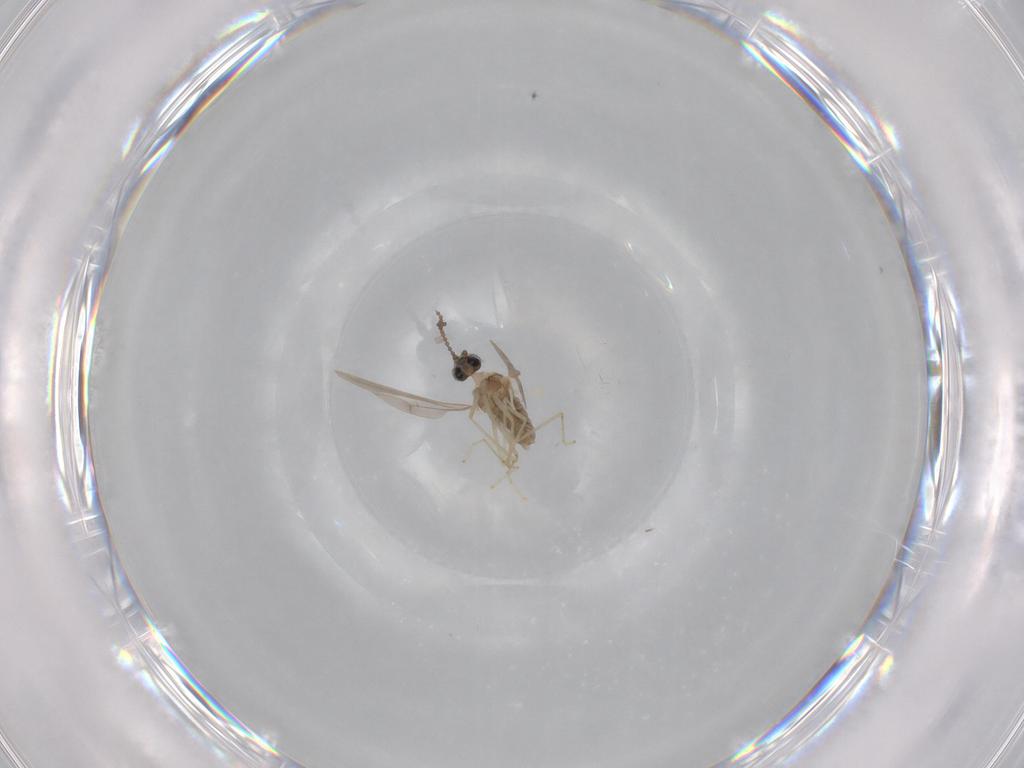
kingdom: Animalia
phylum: Arthropoda
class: Insecta
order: Diptera
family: Cecidomyiidae
